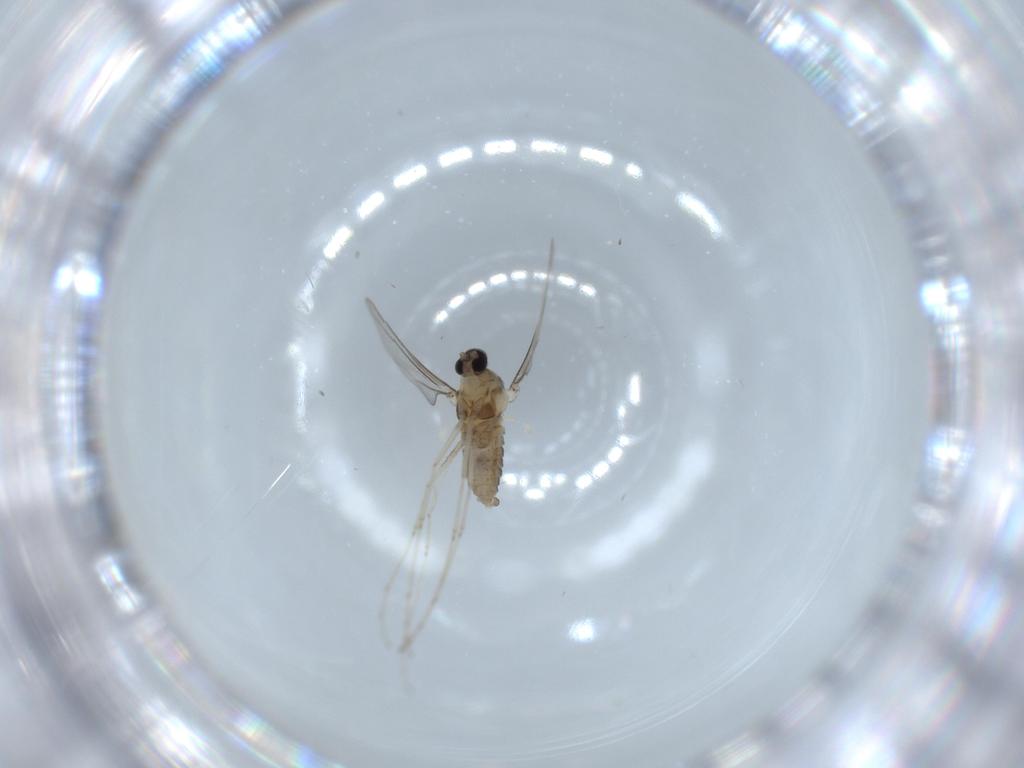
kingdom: Animalia
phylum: Arthropoda
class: Insecta
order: Diptera
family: Cecidomyiidae
